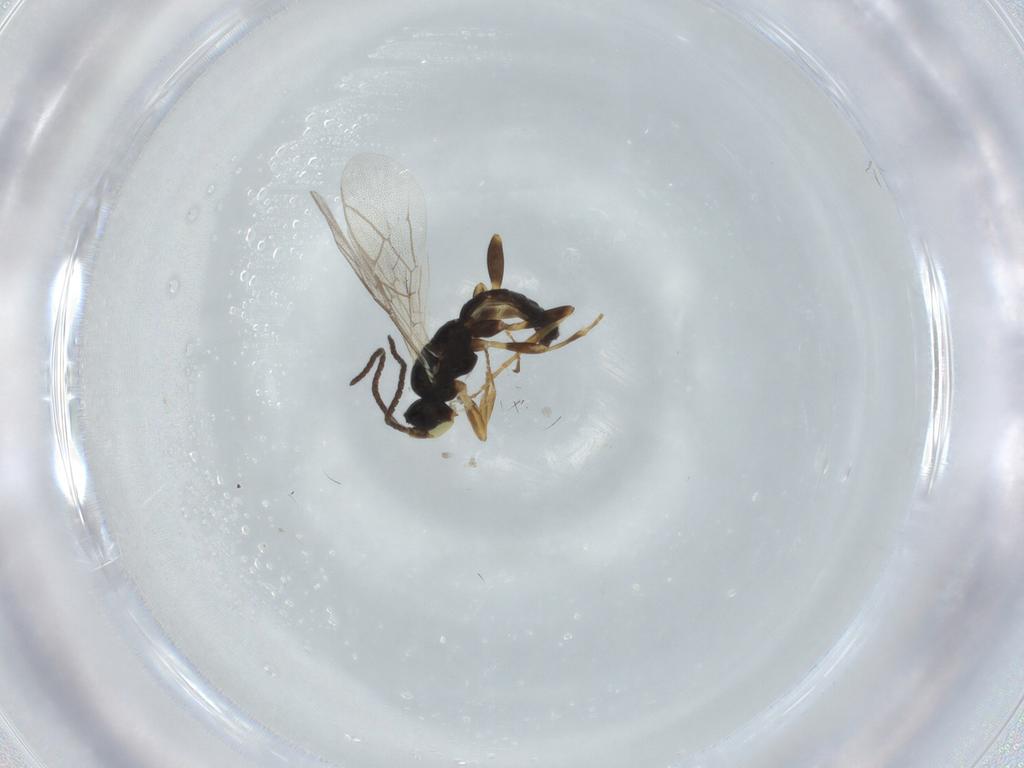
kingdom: Animalia
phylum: Arthropoda
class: Insecta
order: Hymenoptera
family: Ichneumonidae
